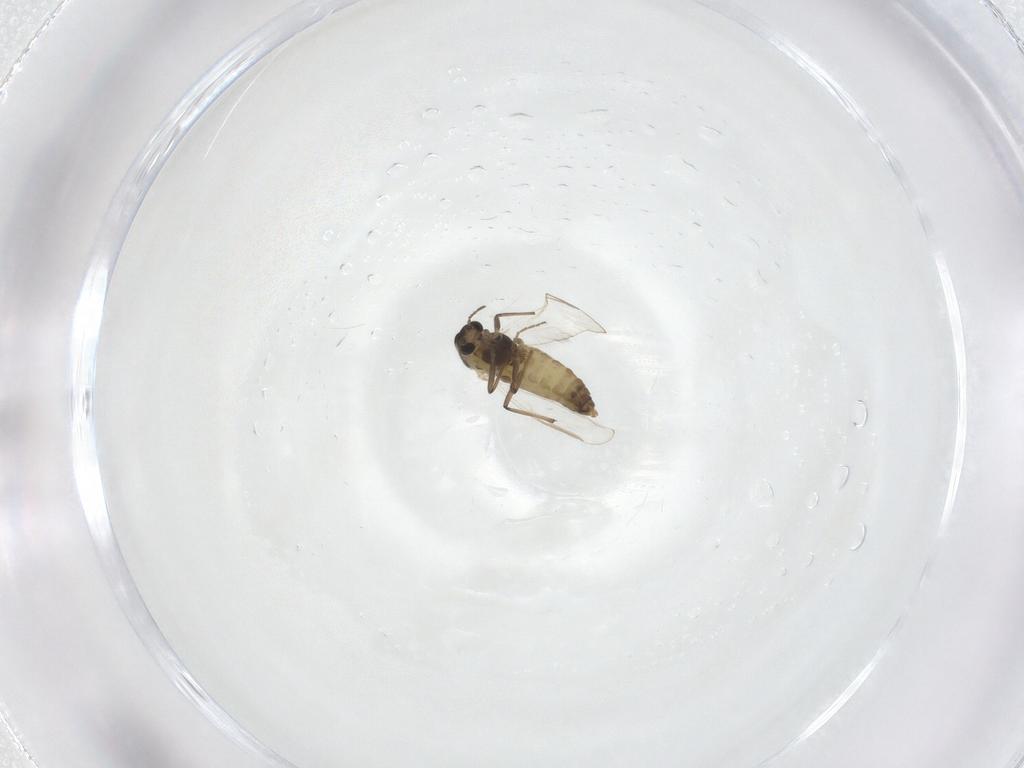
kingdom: Animalia
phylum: Arthropoda
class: Insecta
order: Diptera
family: Chironomidae
